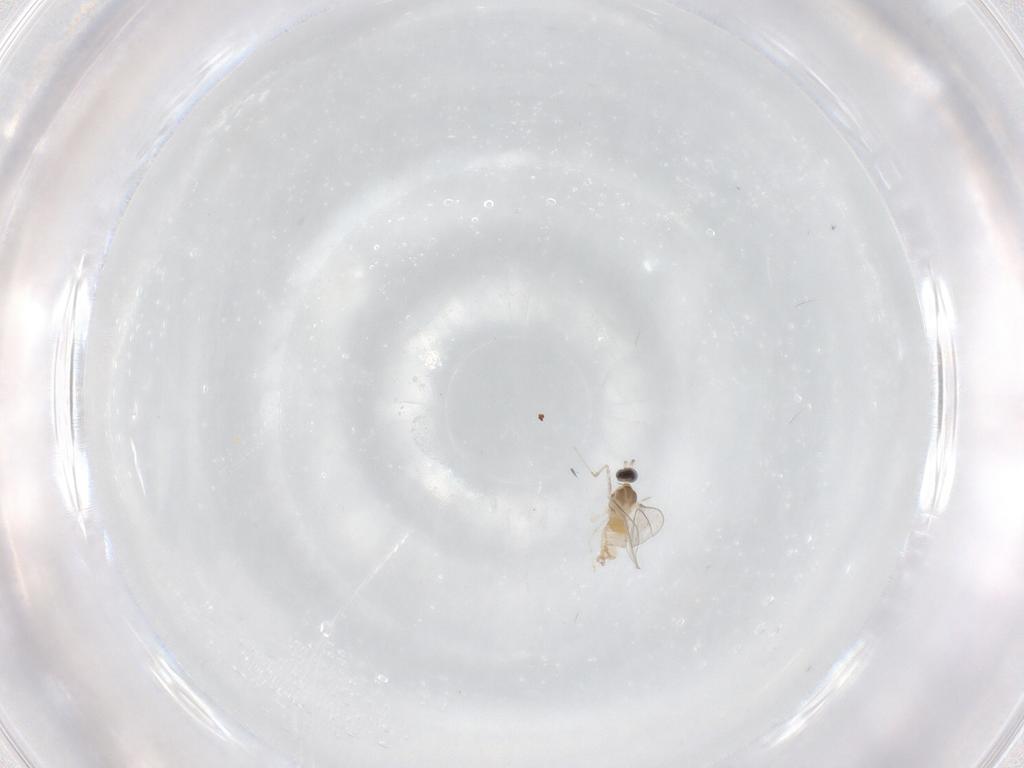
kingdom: Animalia
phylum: Arthropoda
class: Insecta
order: Diptera
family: Cecidomyiidae
